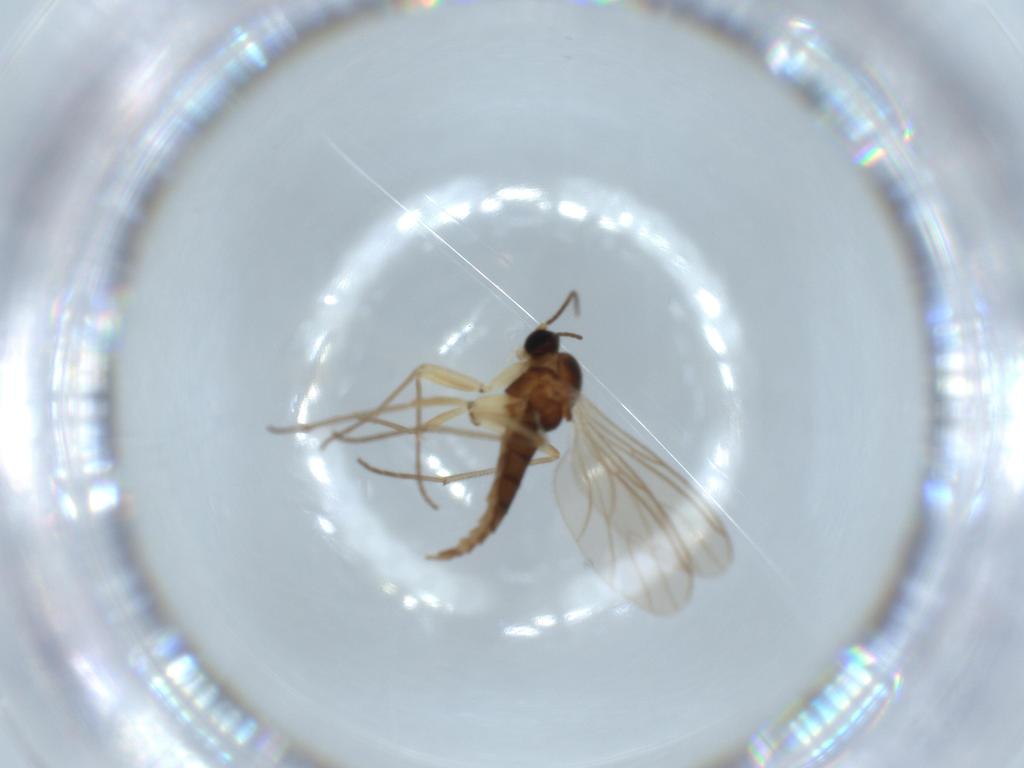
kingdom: Animalia
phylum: Arthropoda
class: Insecta
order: Diptera
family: Sciaridae
